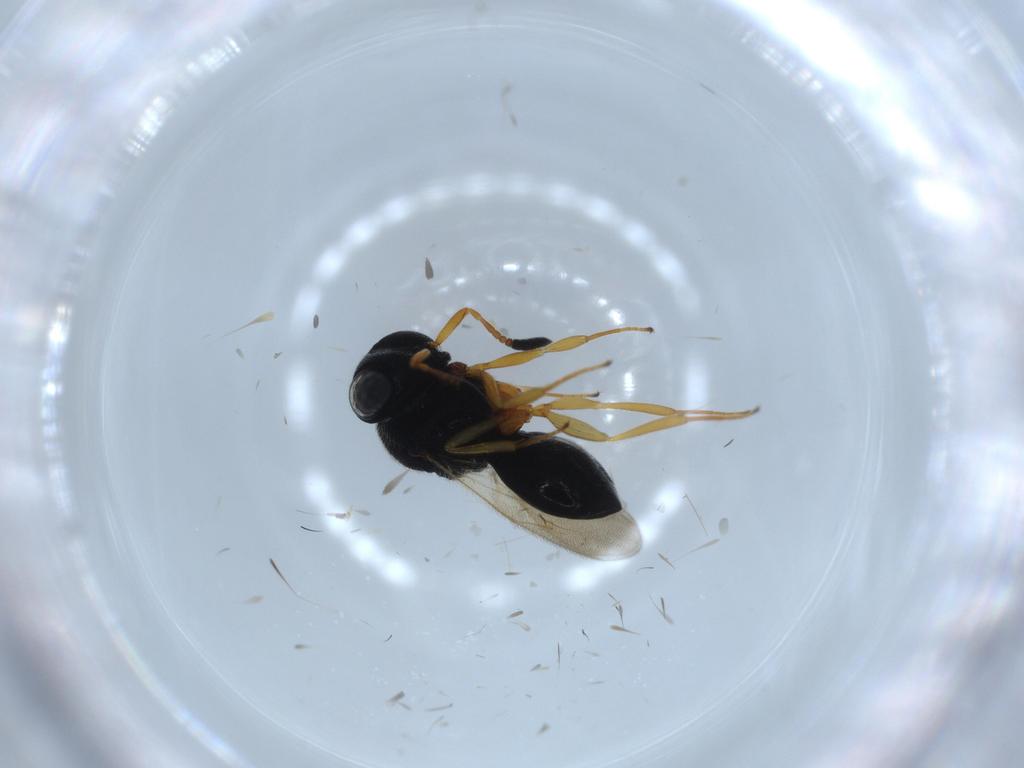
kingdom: Animalia
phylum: Arthropoda
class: Insecta
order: Hymenoptera
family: Scelionidae
